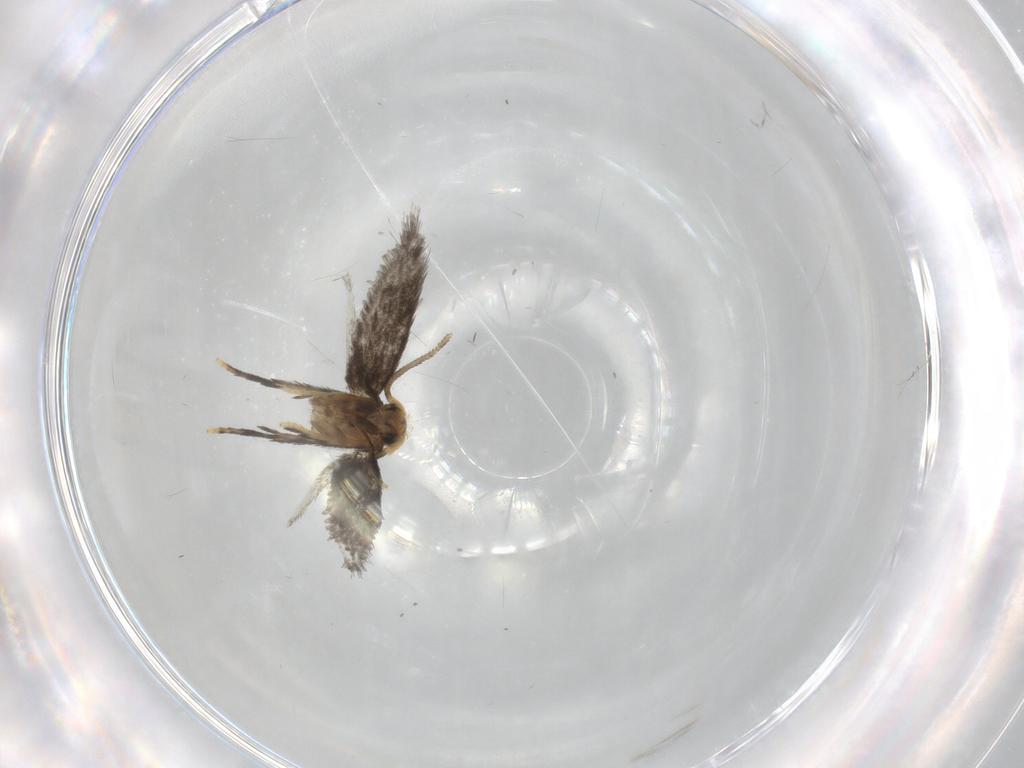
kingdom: Animalia
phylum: Arthropoda
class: Insecta
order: Lepidoptera
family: Nepticulidae
